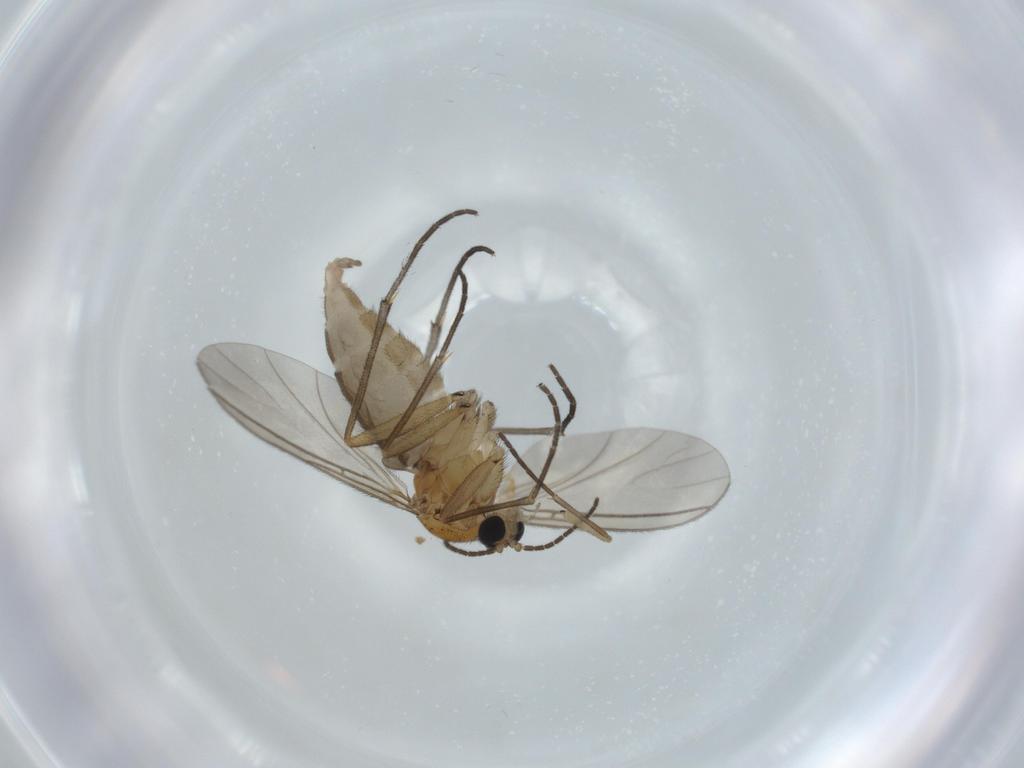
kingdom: Animalia
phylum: Arthropoda
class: Insecta
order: Diptera
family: Sciaridae
